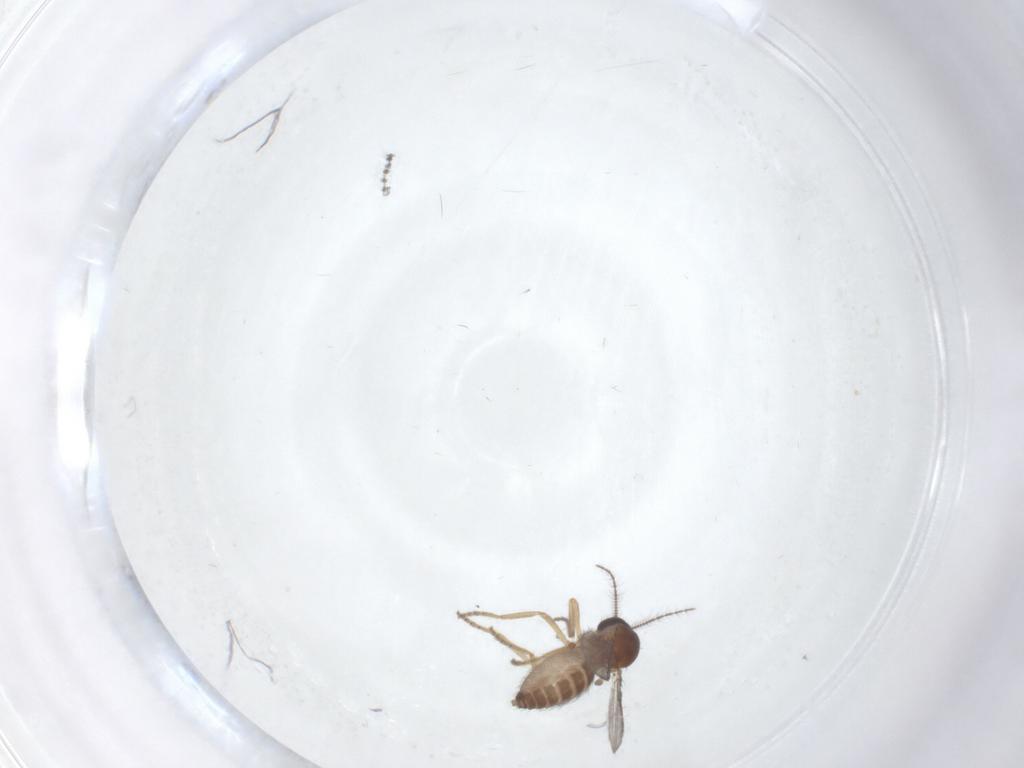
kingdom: Animalia
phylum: Arthropoda
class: Insecta
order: Diptera
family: Ceratopogonidae
